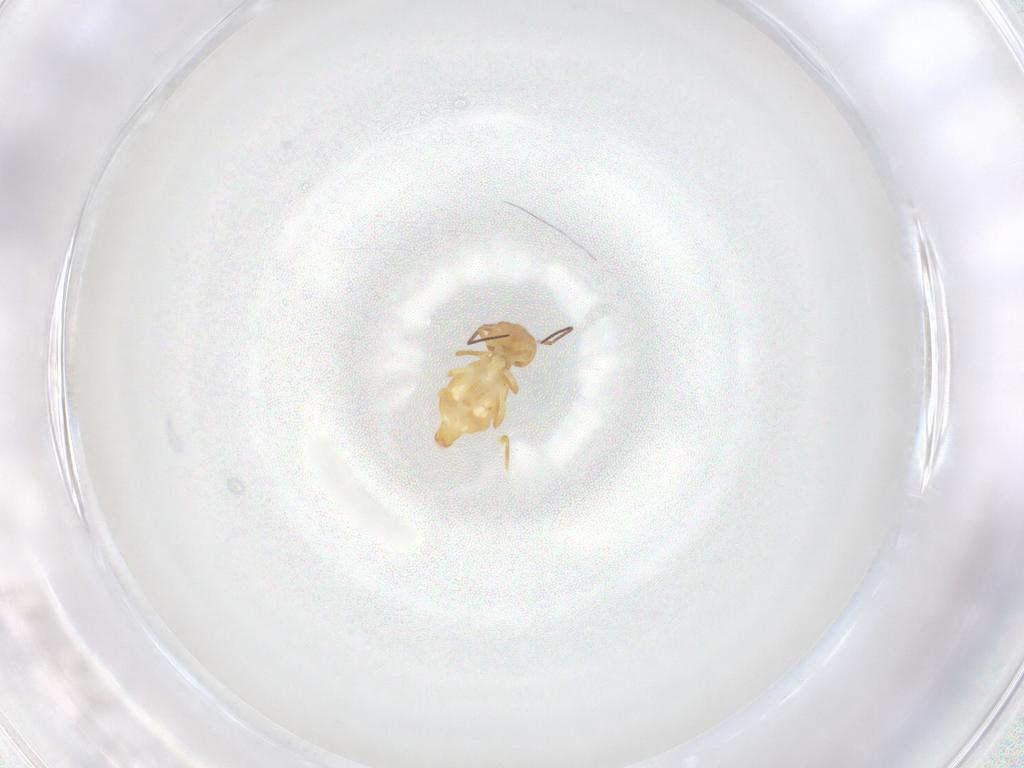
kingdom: Animalia
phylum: Arthropoda
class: Collembola
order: Symphypleona
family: Bourletiellidae
